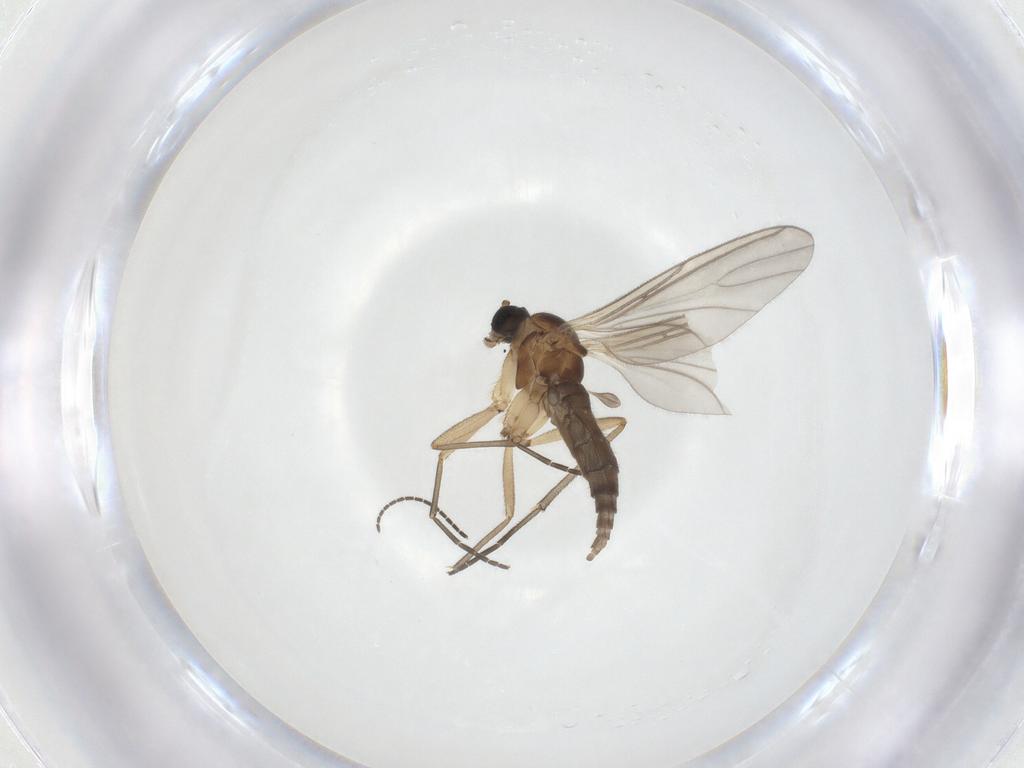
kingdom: Animalia
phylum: Arthropoda
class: Insecta
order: Diptera
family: Sciaridae
